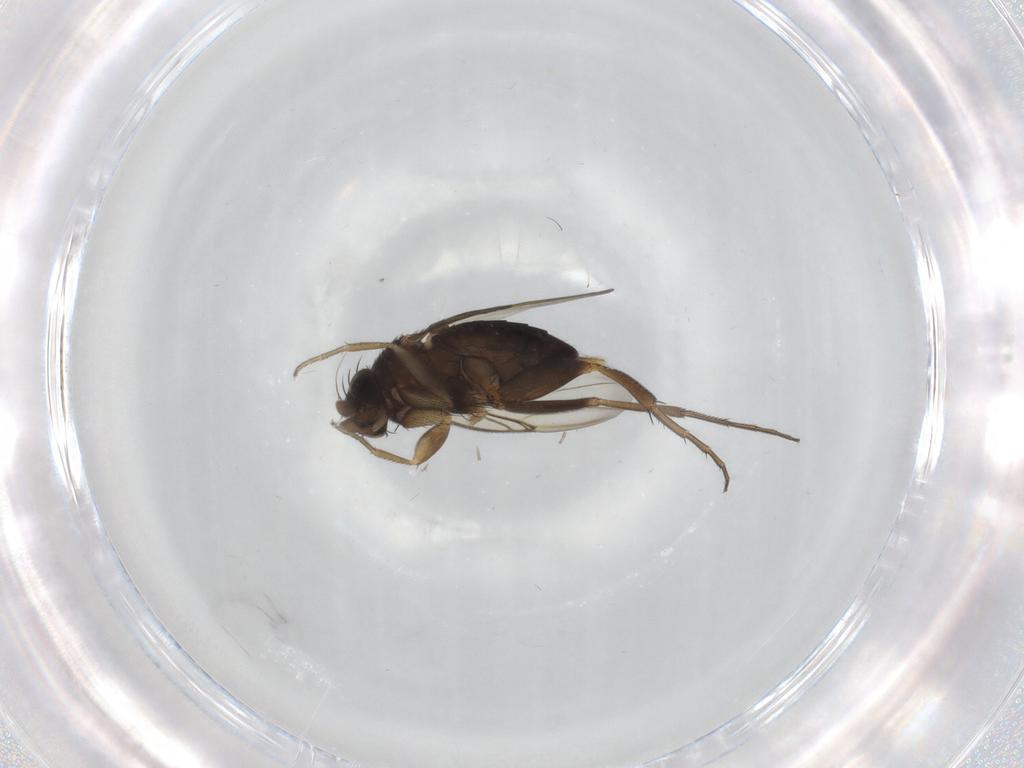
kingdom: Animalia
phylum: Arthropoda
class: Insecta
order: Diptera
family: Phoridae
